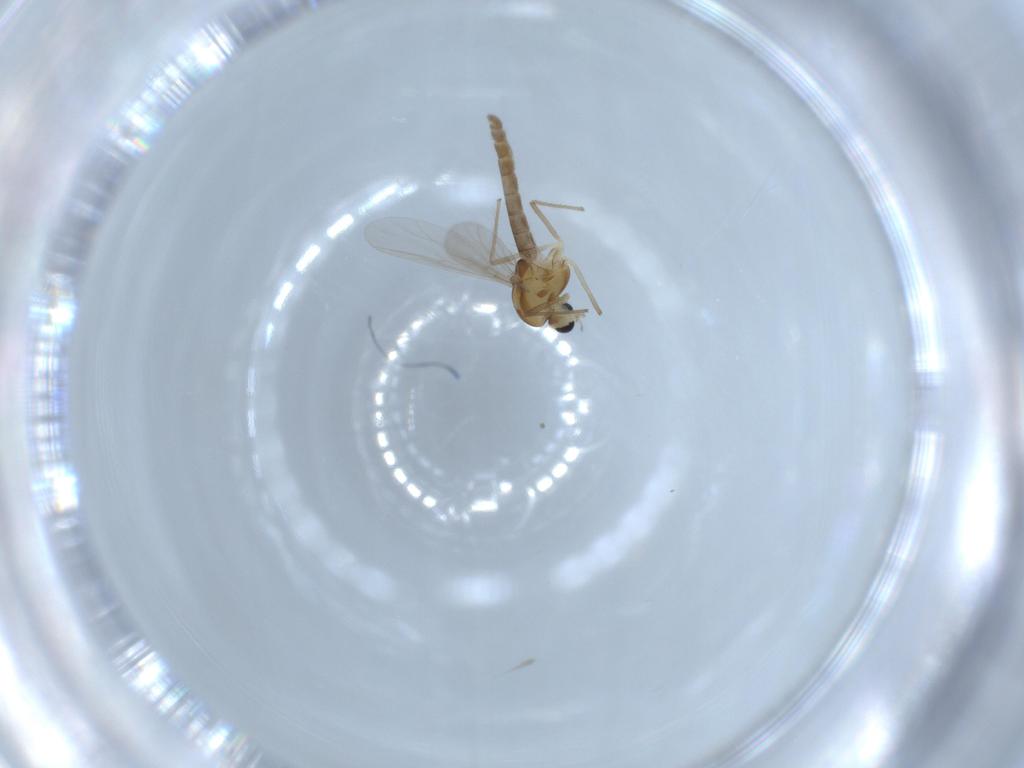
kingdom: Animalia
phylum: Arthropoda
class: Insecta
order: Diptera
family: Chironomidae
